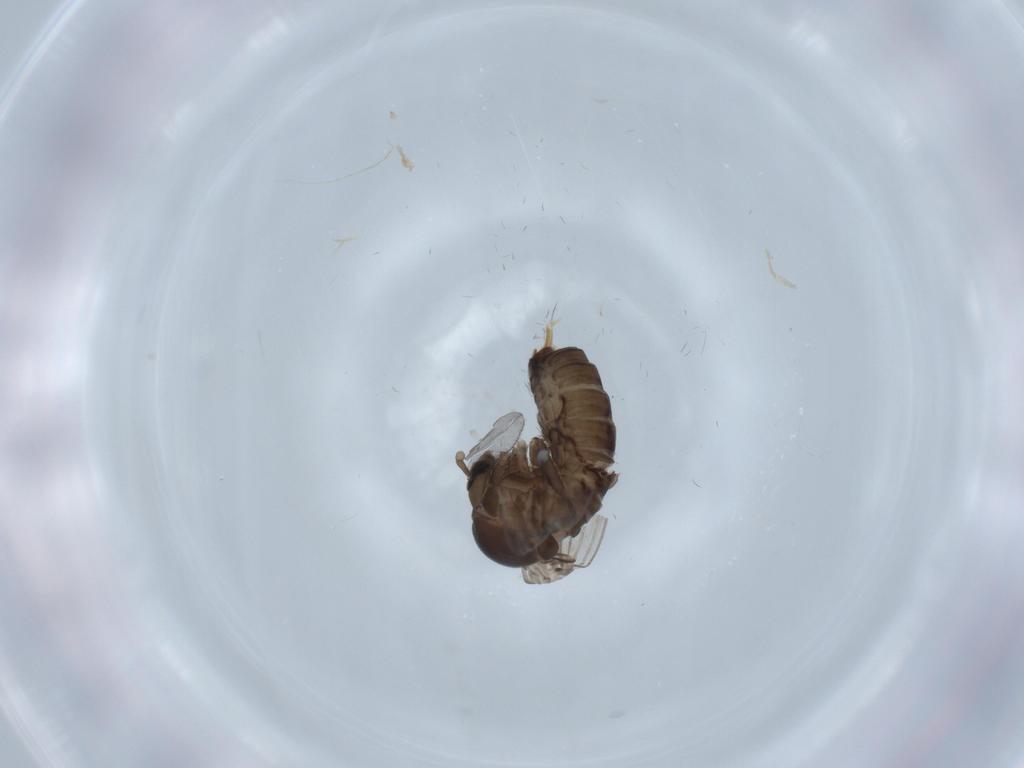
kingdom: Animalia
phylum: Arthropoda
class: Insecta
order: Diptera
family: Psychodidae
